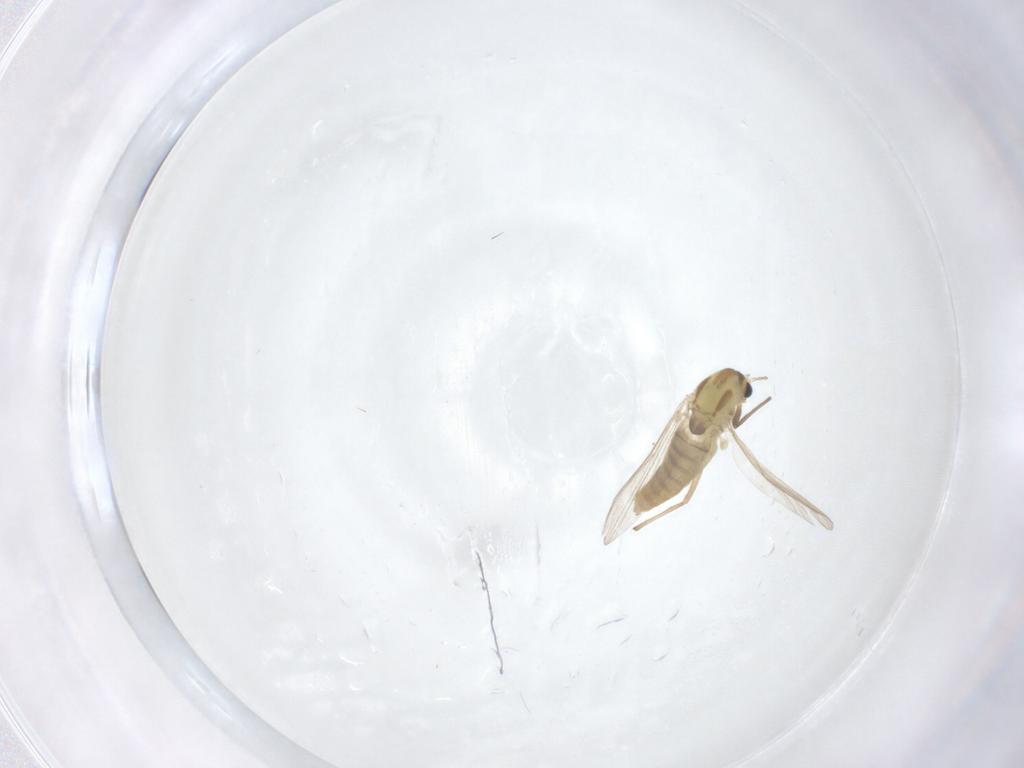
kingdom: Animalia
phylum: Arthropoda
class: Insecta
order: Diptera
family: Chironomidae
